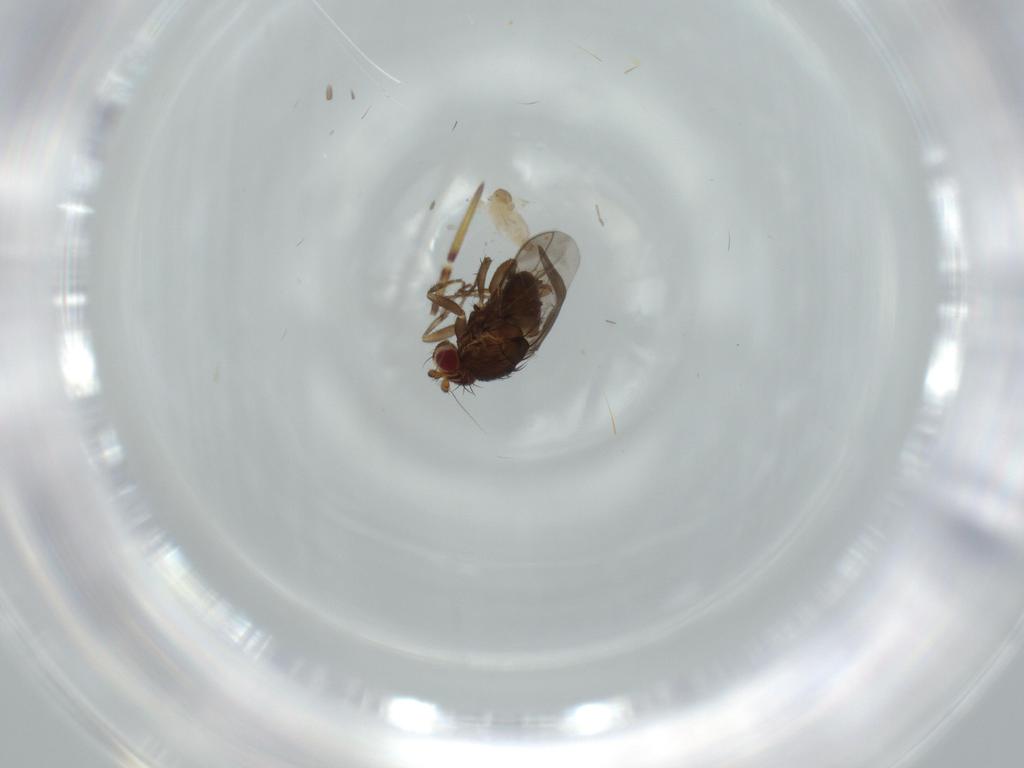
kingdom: Animalia
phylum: Arthropoda
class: Insecta
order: Diptera
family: Cecidomyiidae
